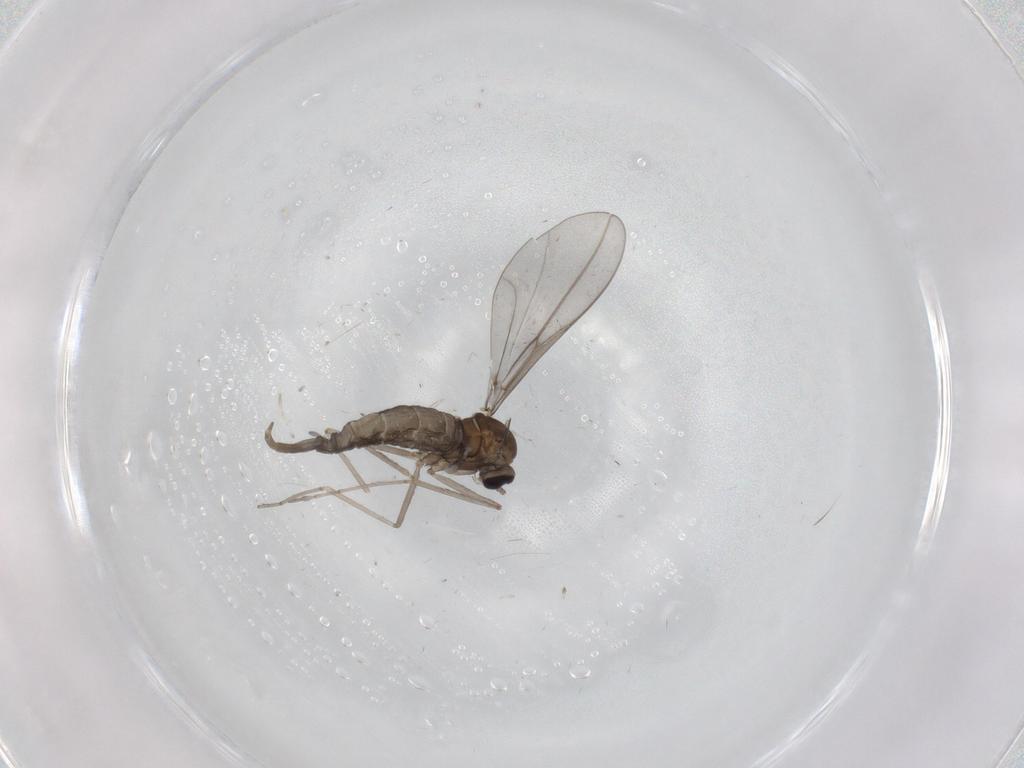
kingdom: Animalia
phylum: Arthropoda
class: Insecta
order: Diptera
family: Cecidomyiidae
